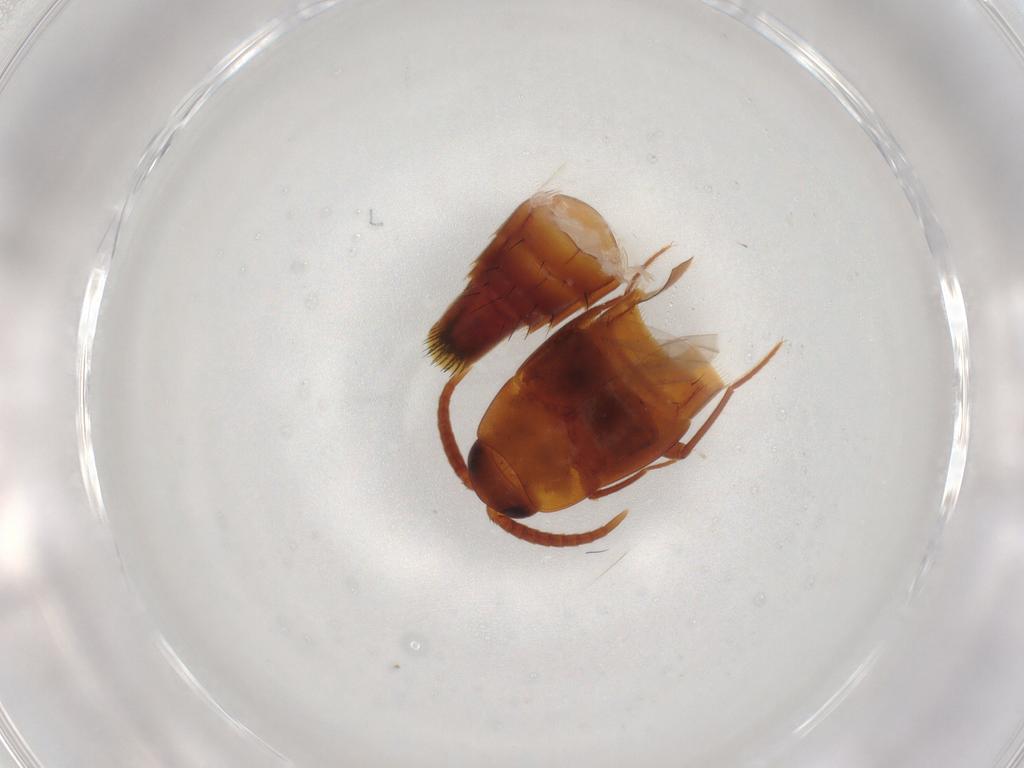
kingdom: Animalia
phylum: Arthropoda
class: Insecta
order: Coleoptera
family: Staphylinidae
